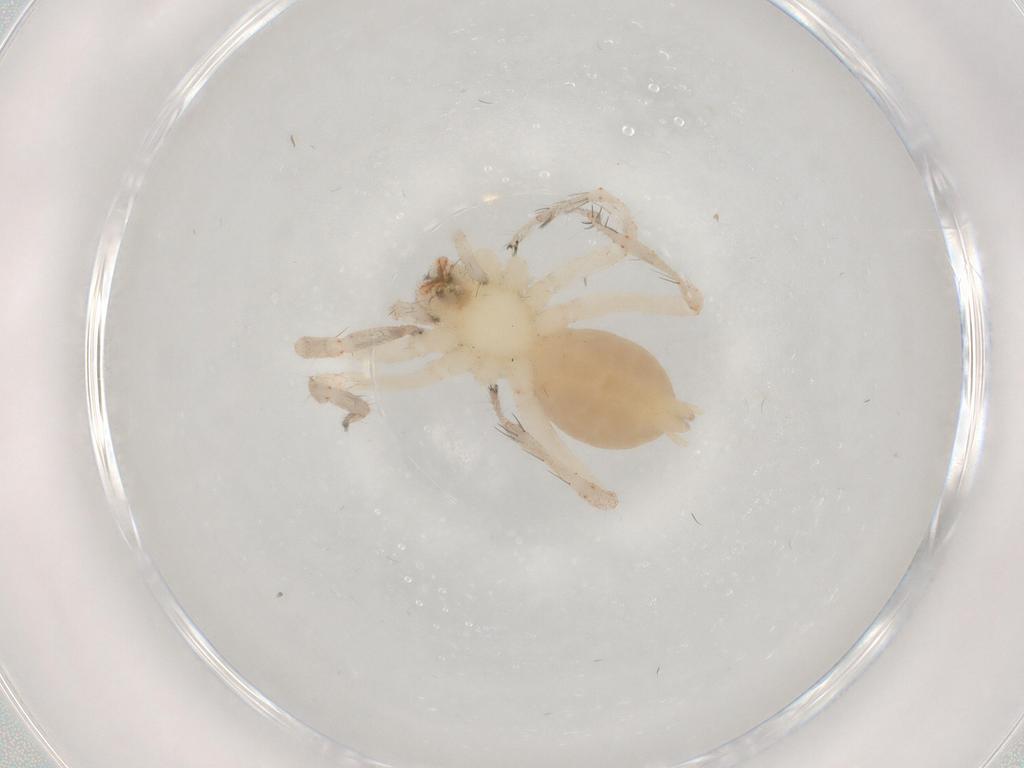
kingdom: Animalia
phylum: Arthropoda
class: Arachnida
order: Araneae
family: Anyphaenidae
